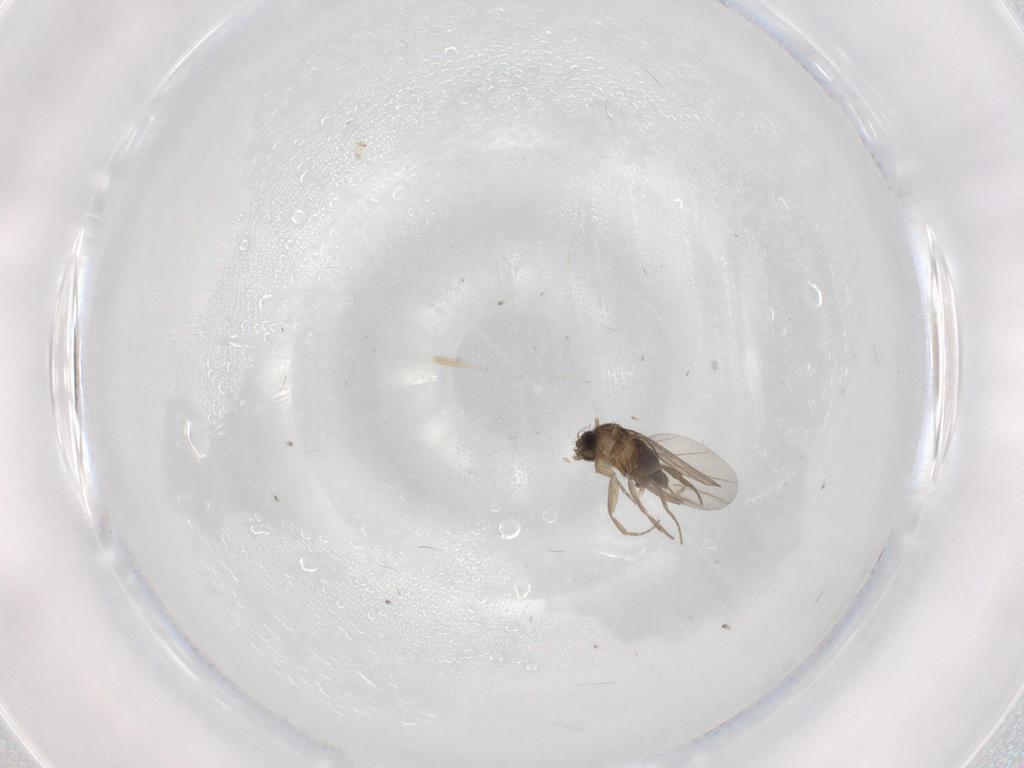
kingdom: Animalia
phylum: Arthropoda
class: Insecta
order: Diptera
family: Phoridae
